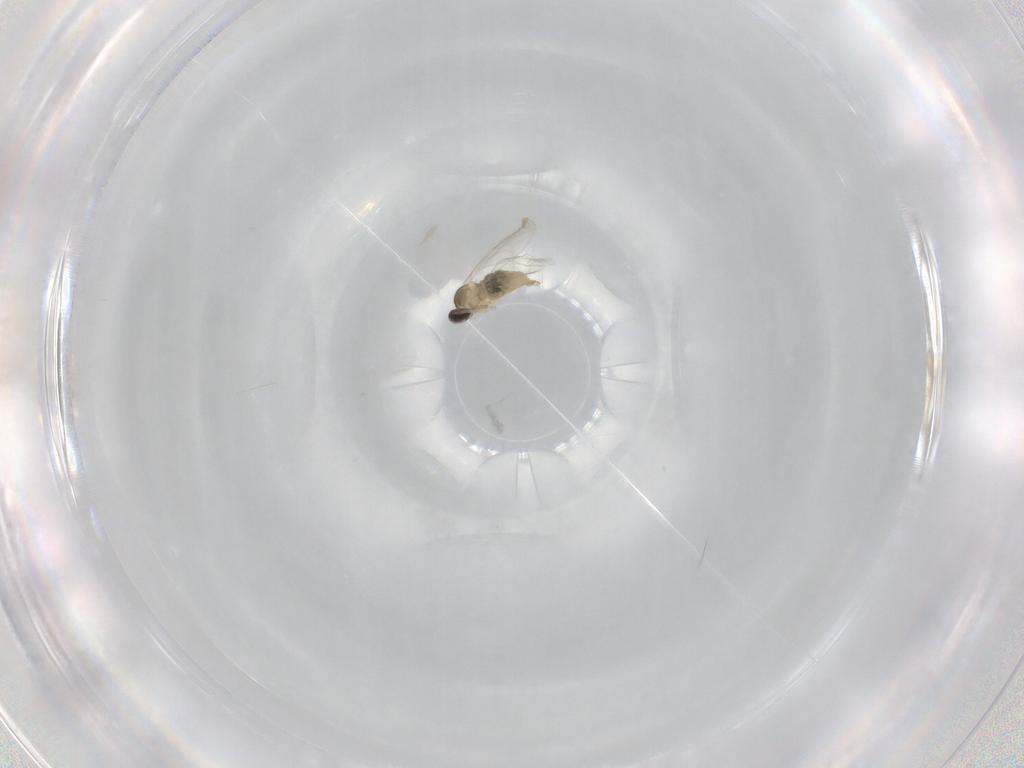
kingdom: Animalia
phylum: Arthropoda
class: Insecta
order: Diptera
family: Cecidomyiidae
